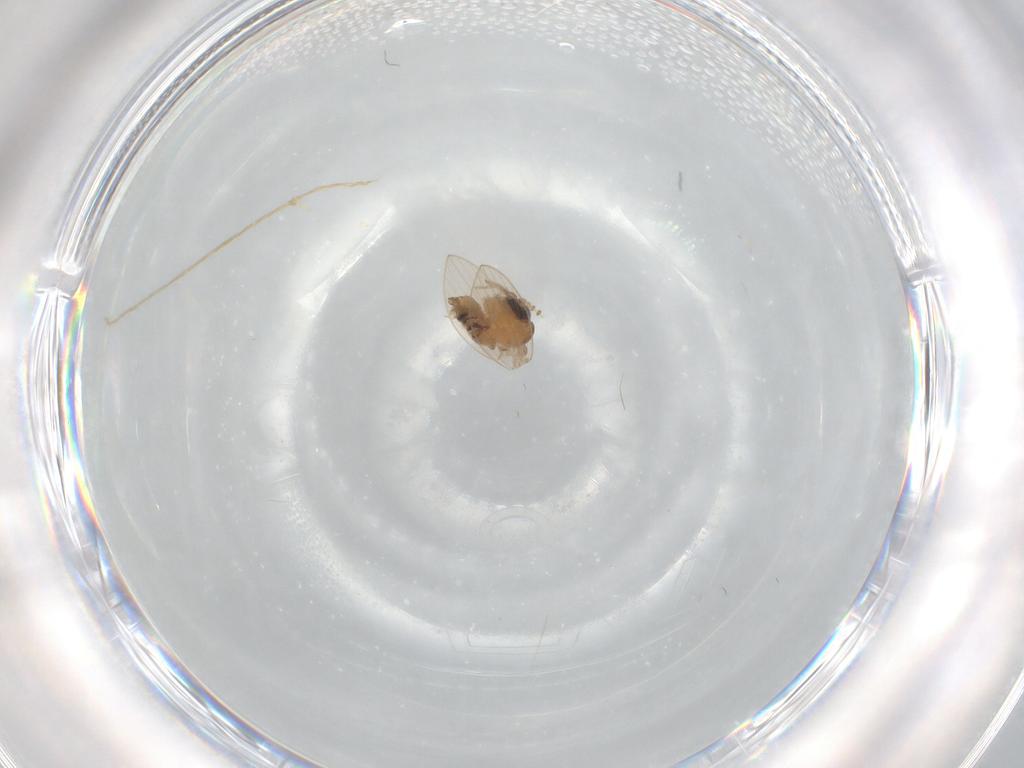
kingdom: Animalia
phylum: Arthropoda
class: Insecta
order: Diptera
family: Psychodidae
